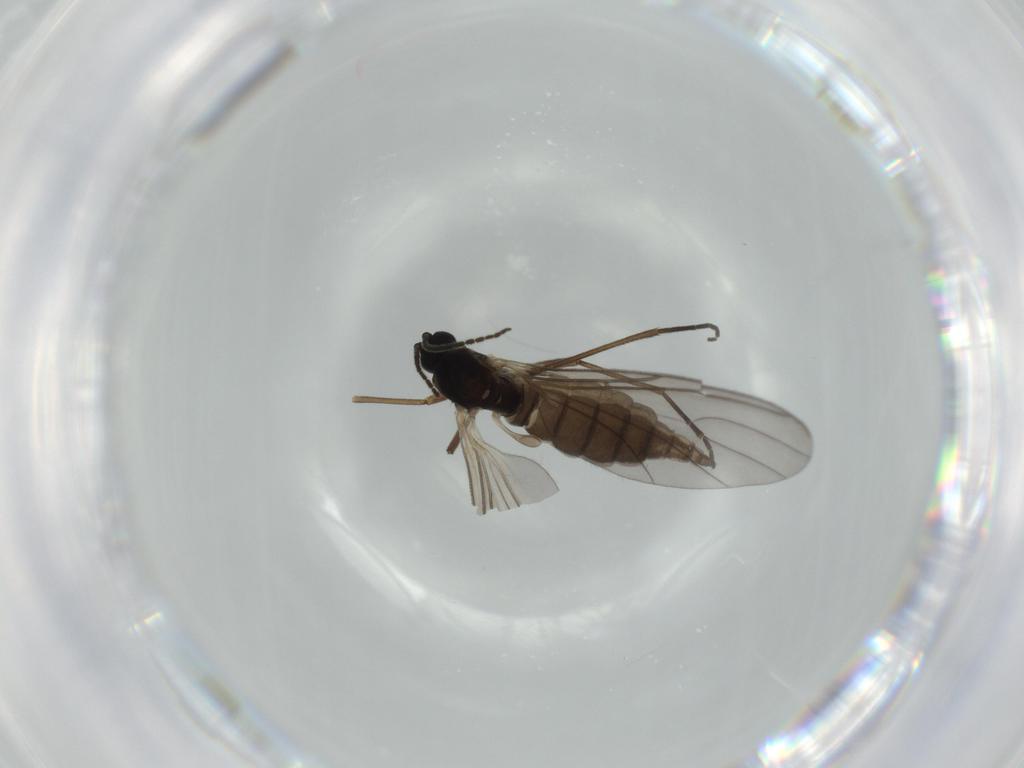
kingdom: Animalia
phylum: Arthropoda
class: Insecta
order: Diptera
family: Sciaridae
